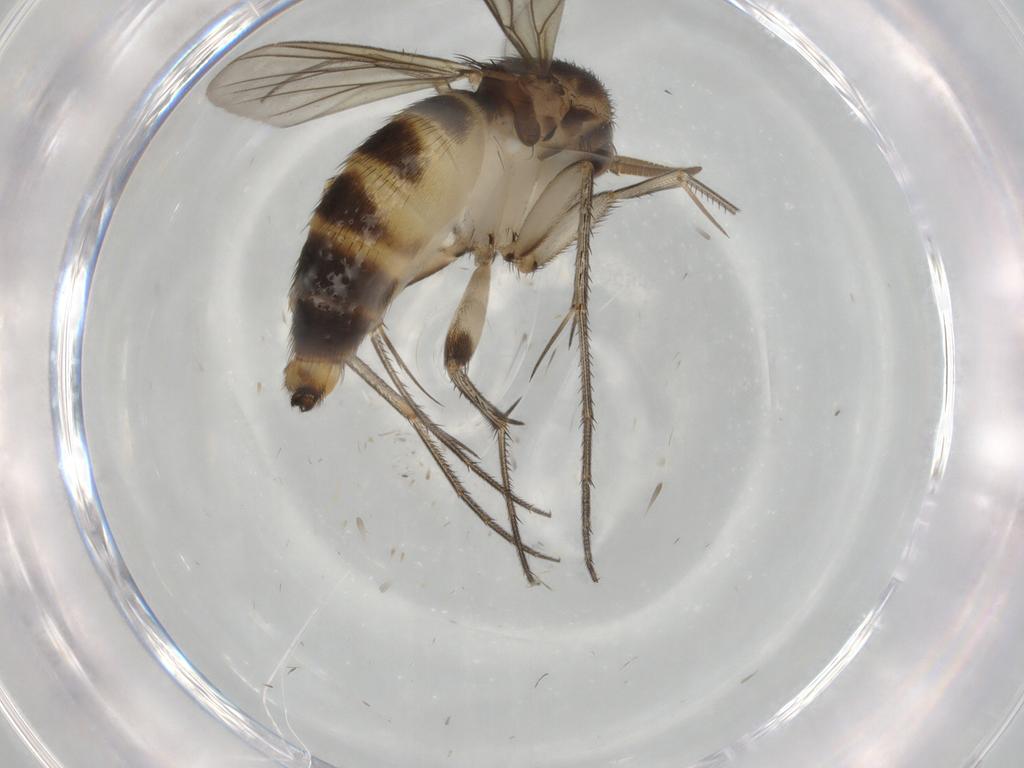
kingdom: Animalia
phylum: Arthropoda
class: Insecta
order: Diptera
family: Mycetophilidae
